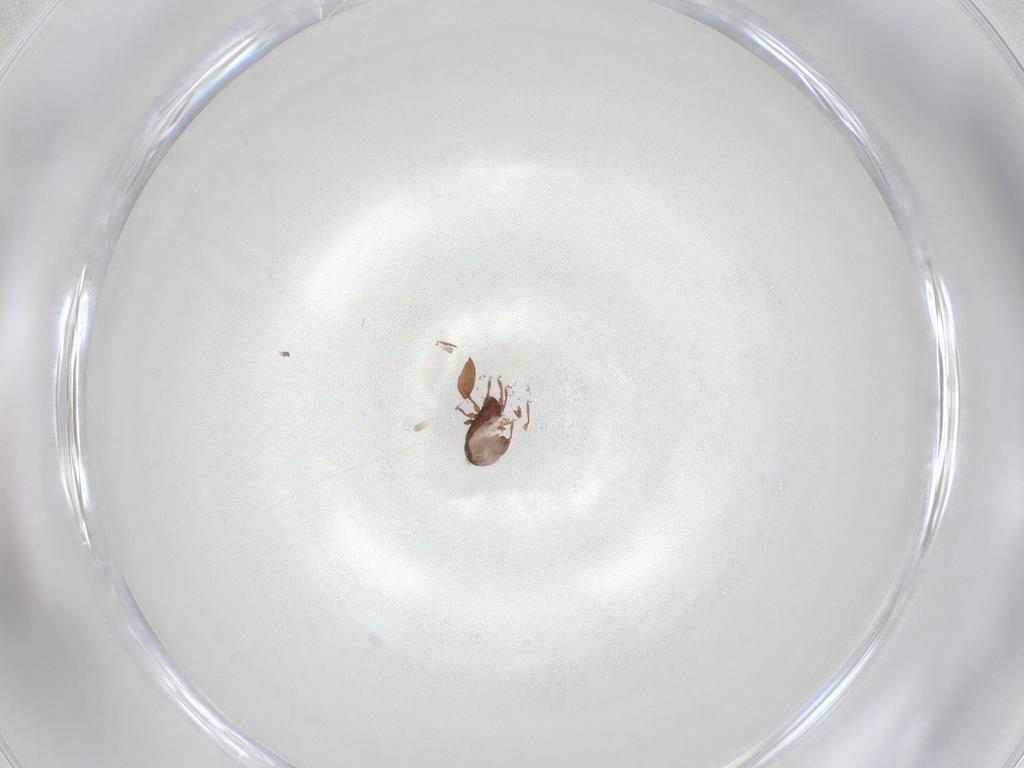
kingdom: Animalia
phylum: Arthropoda
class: Arachnida
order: Sarcoptiformes
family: Scheloribatidae
